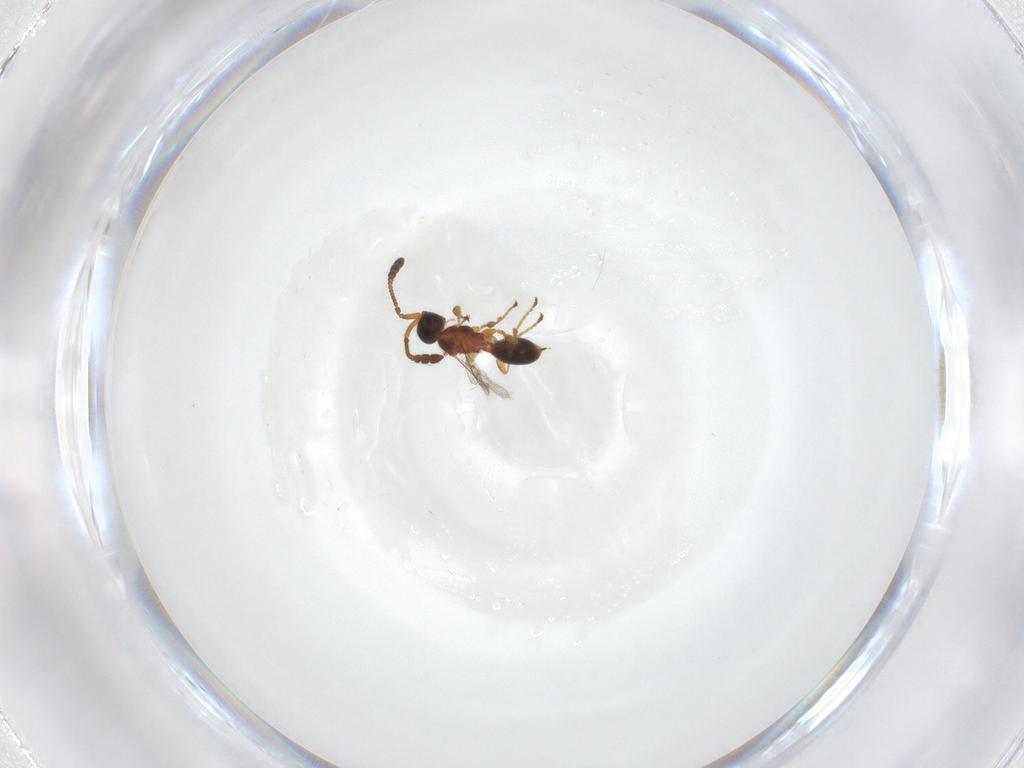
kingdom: Animalia
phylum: Arthropoda
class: Insecta
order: Hymenoptera
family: Diapriidae
